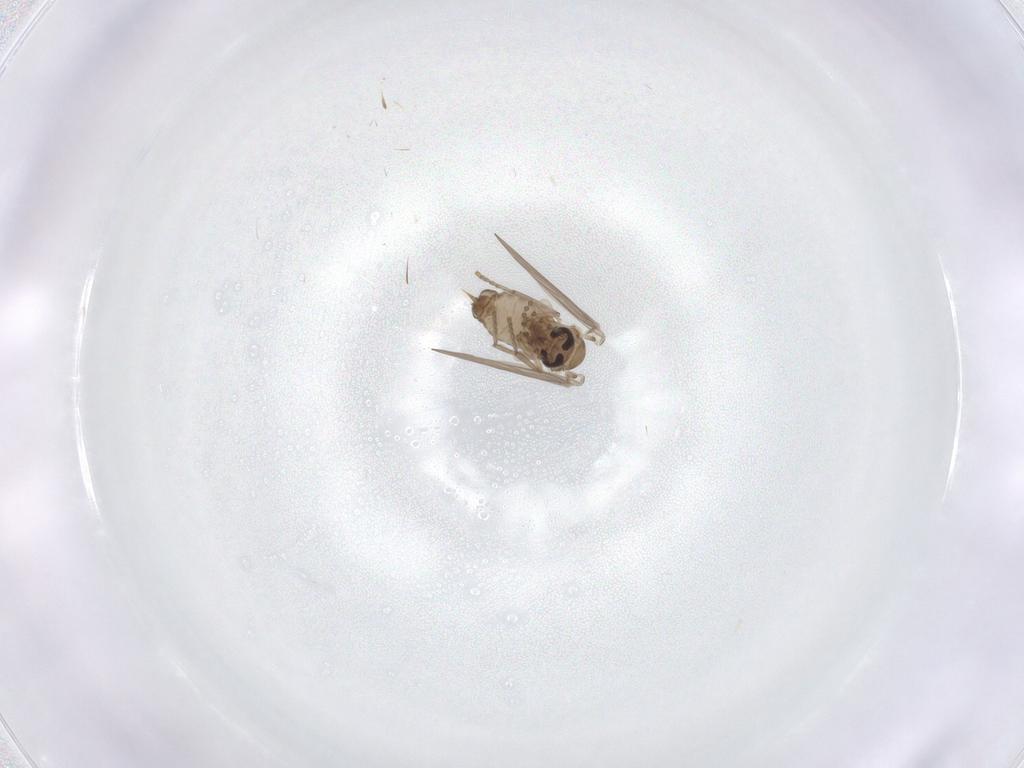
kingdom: Animalia
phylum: Arthropoda
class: Insecta
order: Diptera
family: Psychodidae
